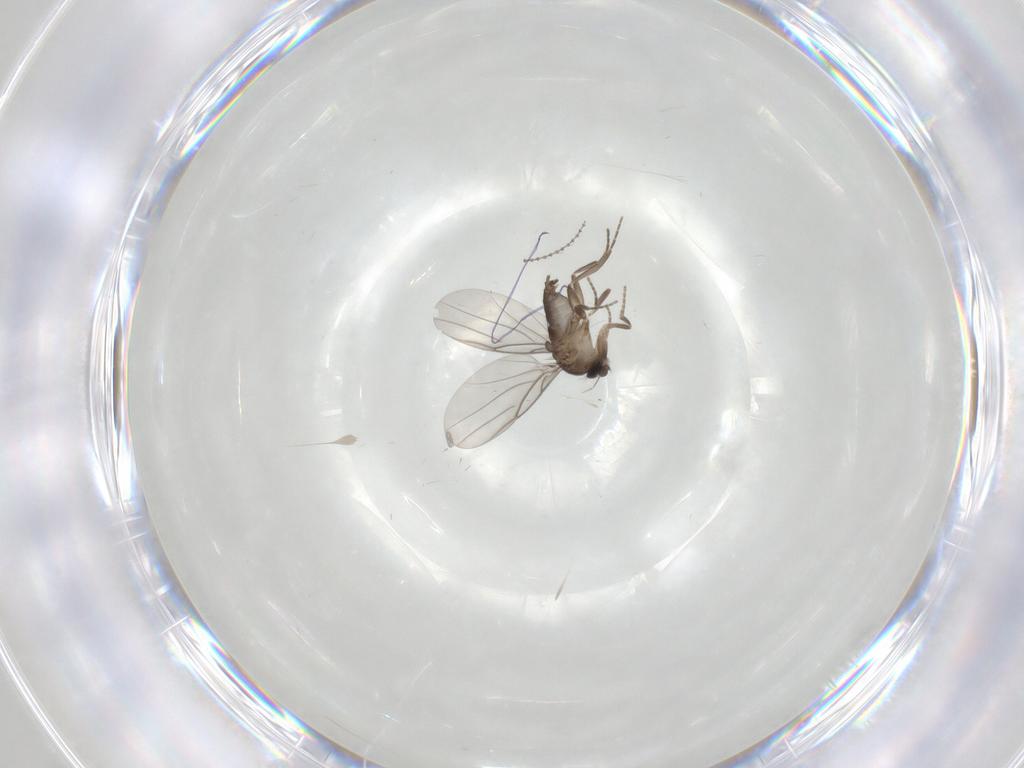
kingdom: Animalia
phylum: Arthropoda
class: Insecta
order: Diptera
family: Cecidomyiidae
